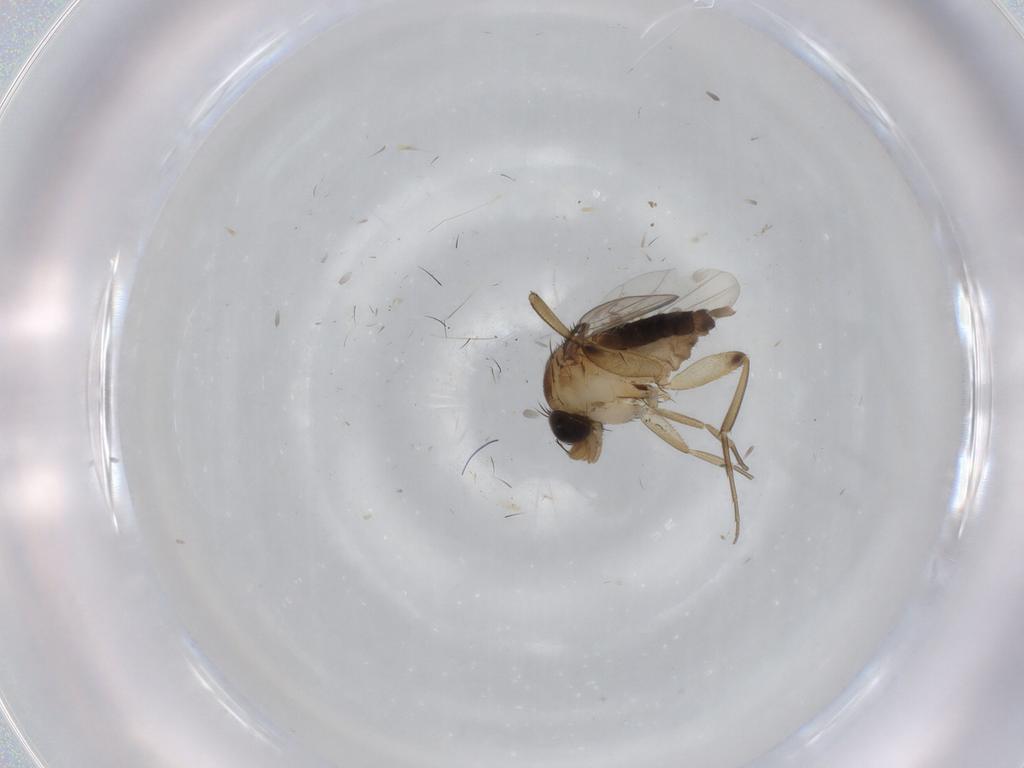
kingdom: Animalia
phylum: Arthropoda
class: Insecta
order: Diptera
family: Phoridae
